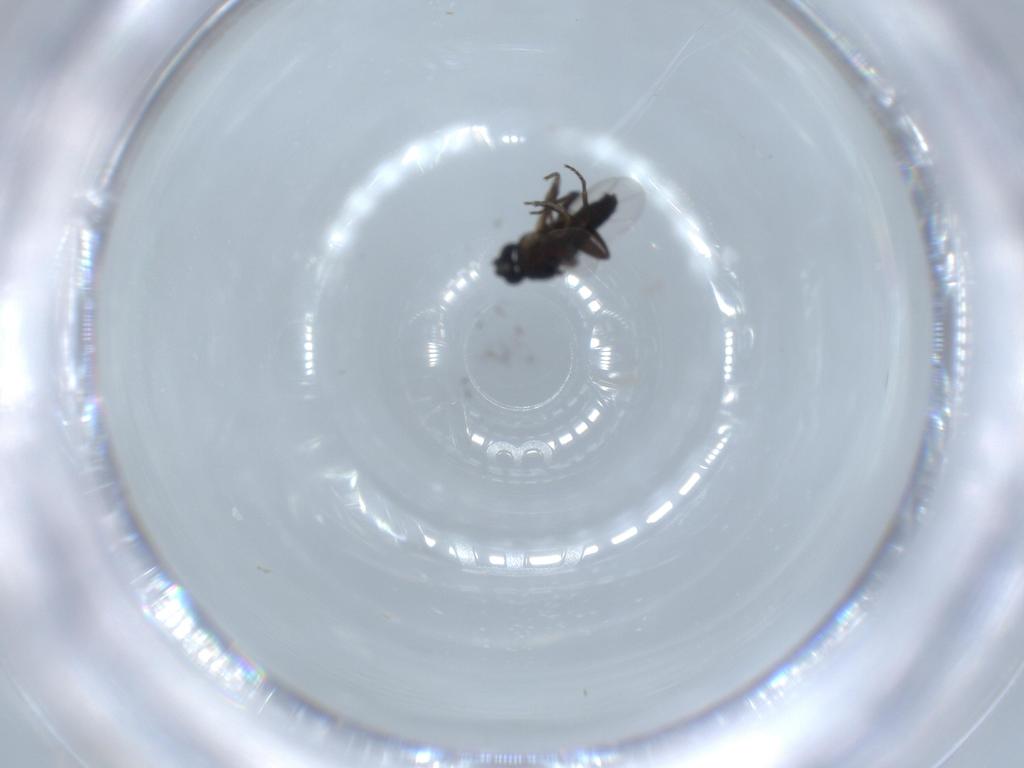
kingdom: Animalia
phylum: Arthropoda
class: Insecta
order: Diptera
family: Phoridae
